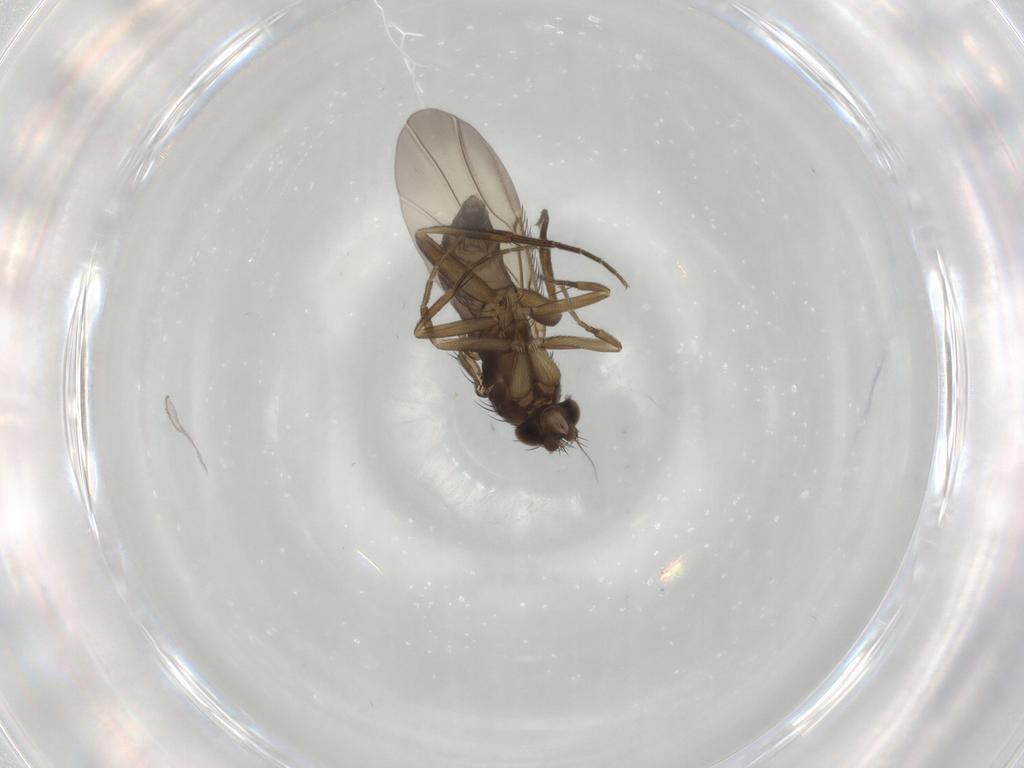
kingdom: Animalia
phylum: Arthropoda
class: Insecta
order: Diptera
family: Phoridae
